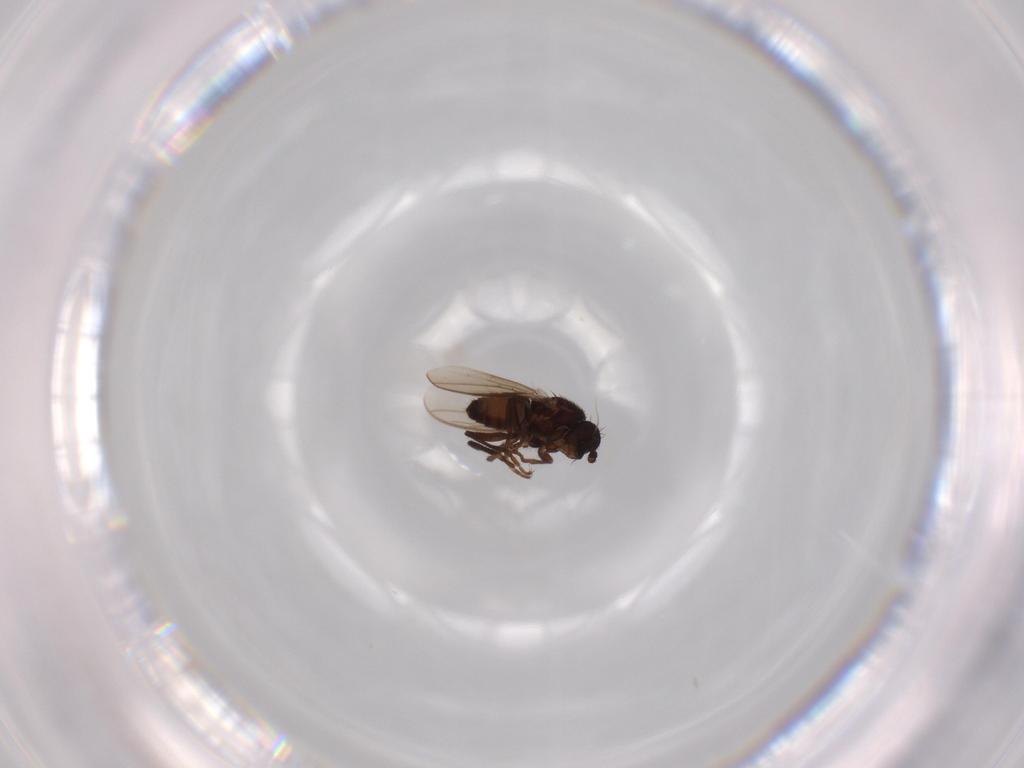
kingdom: Animalia
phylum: Arthropoda
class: Insecta
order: Diptera
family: Sphaeroceridae
